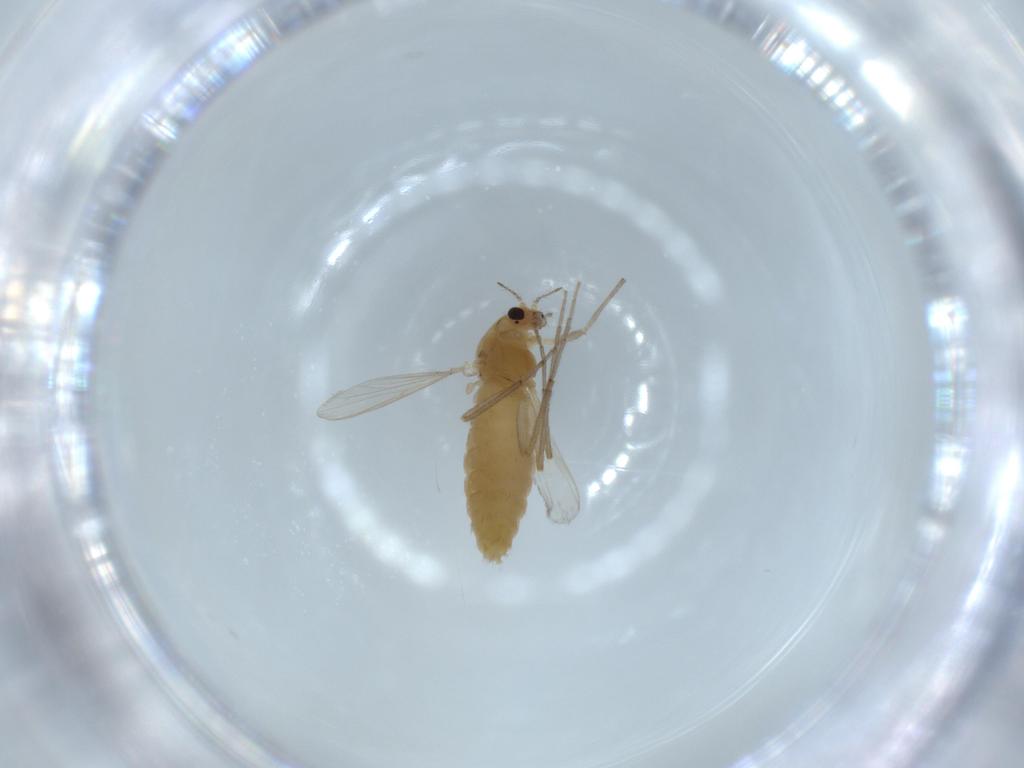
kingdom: Animalia
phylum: Arthropoda
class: Insecta
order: Diptera
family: Chironomidae
